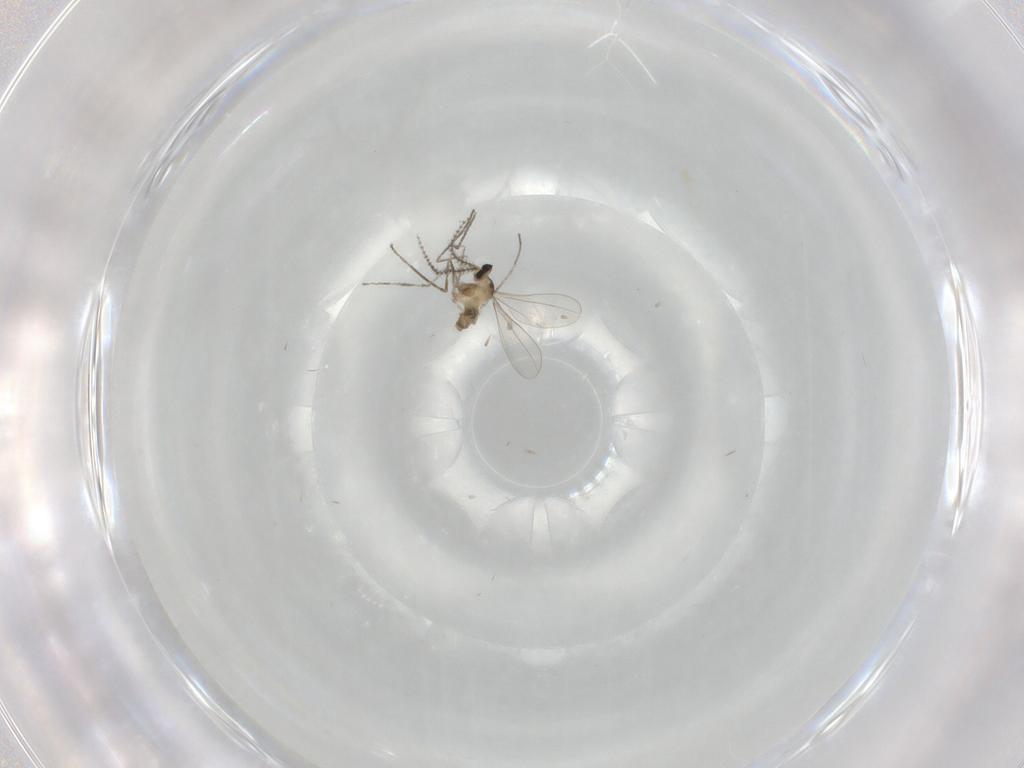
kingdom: Animalia
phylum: Arthropoda
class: Insecta
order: Diptera
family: Cecidomyiidae
